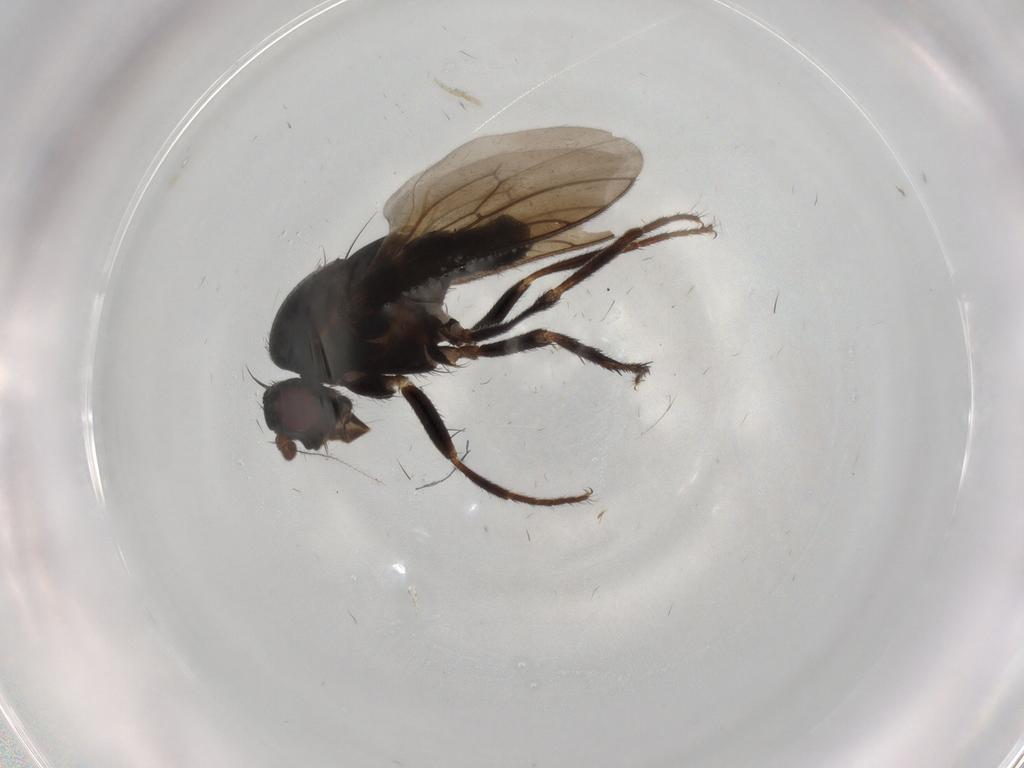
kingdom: Animalia
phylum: Arthropoda
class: Insecta
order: Diptera
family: Sphaeroceridae
